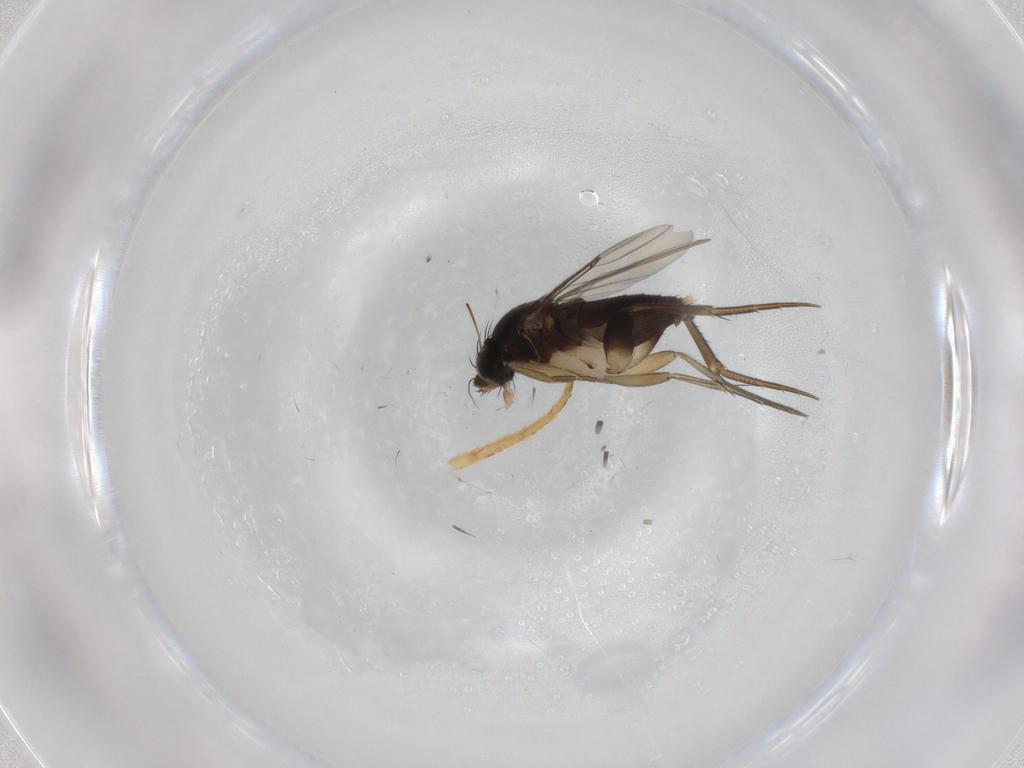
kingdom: Animalia
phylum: Arthropoda
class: Insecta
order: Diptera
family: Phoridae
